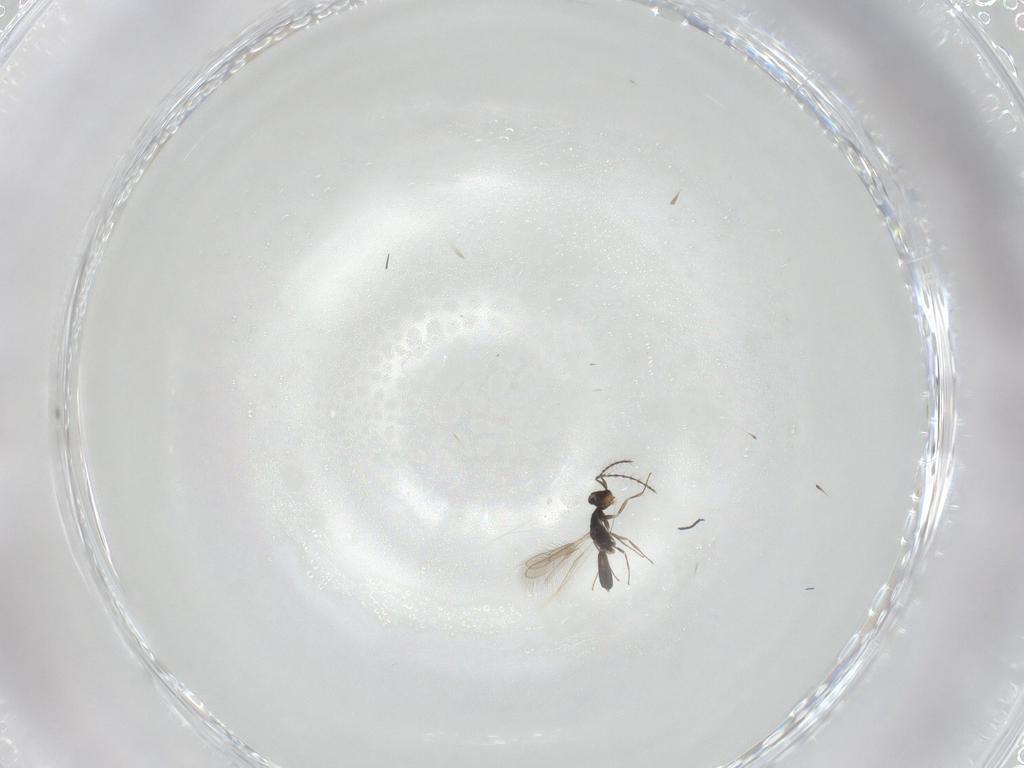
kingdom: Animalia
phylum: Arthropoda
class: Insecta
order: Hymenoptera
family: Pteromalidae
